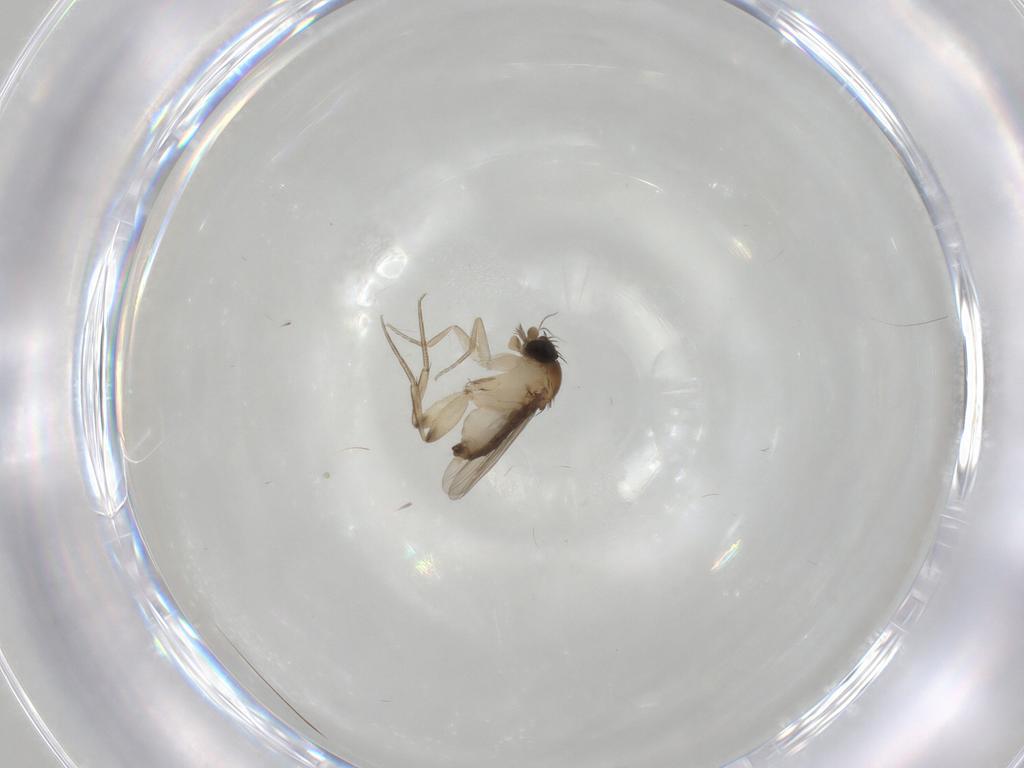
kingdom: Animalia
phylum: Arthropoda
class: Insecta
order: Diptera
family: Phoridae
